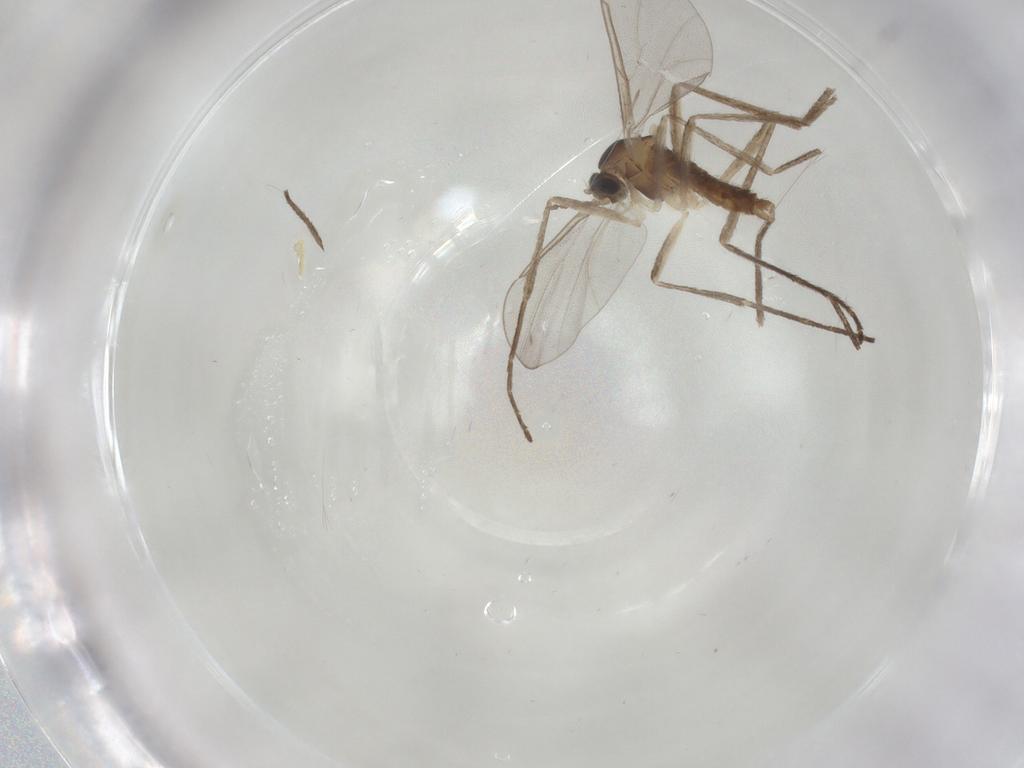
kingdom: Animalia
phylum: Arthropoda
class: Insecta
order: Diptera
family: Cecidomyiidae
